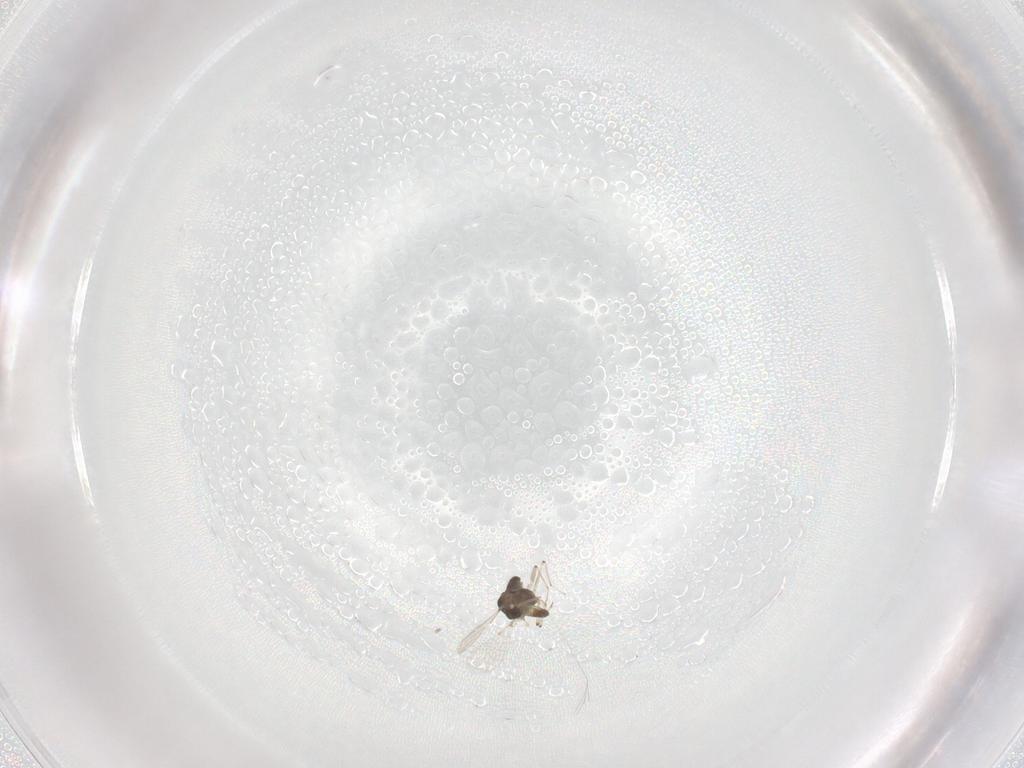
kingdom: Animalia
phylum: Arthropoda
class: Insecta
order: Diptera
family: Chironomidae
